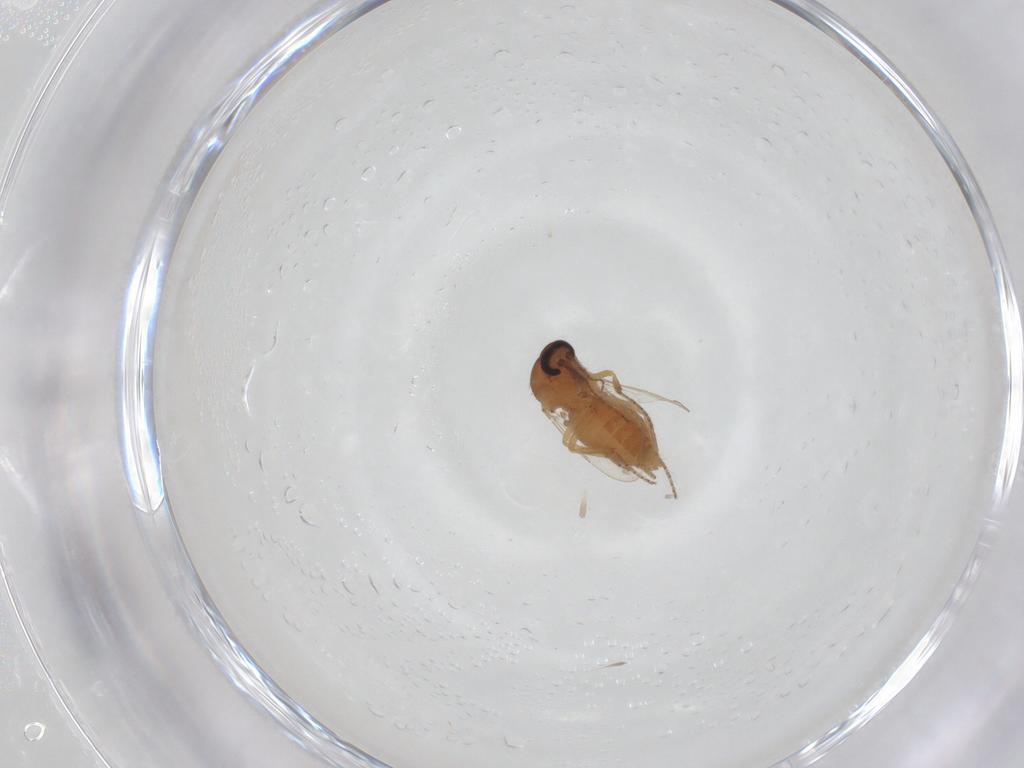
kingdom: Animalia
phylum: Arthropoda
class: Insecta
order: Diptera
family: Ceratopogonidae
